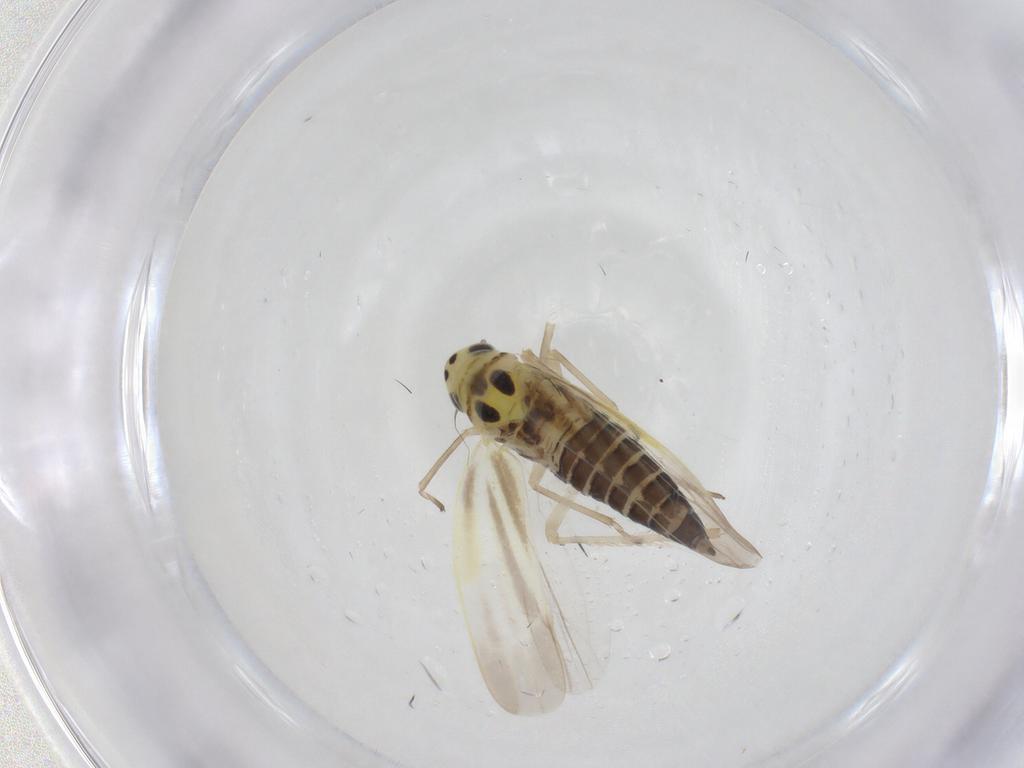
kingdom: Animalia
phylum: Arthropoda
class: Insecta
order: Hemiptera
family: Cicadellidae
